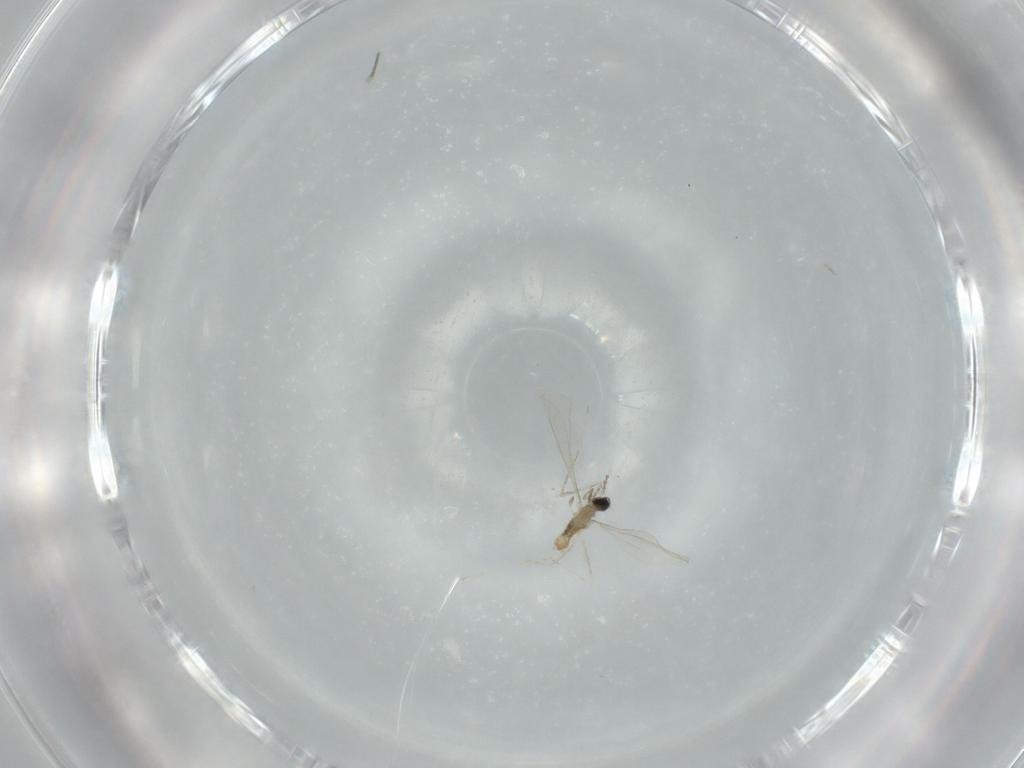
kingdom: Animalia
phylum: Arthropoda
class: Insecta
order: Diptera
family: Cecidomyiidae
